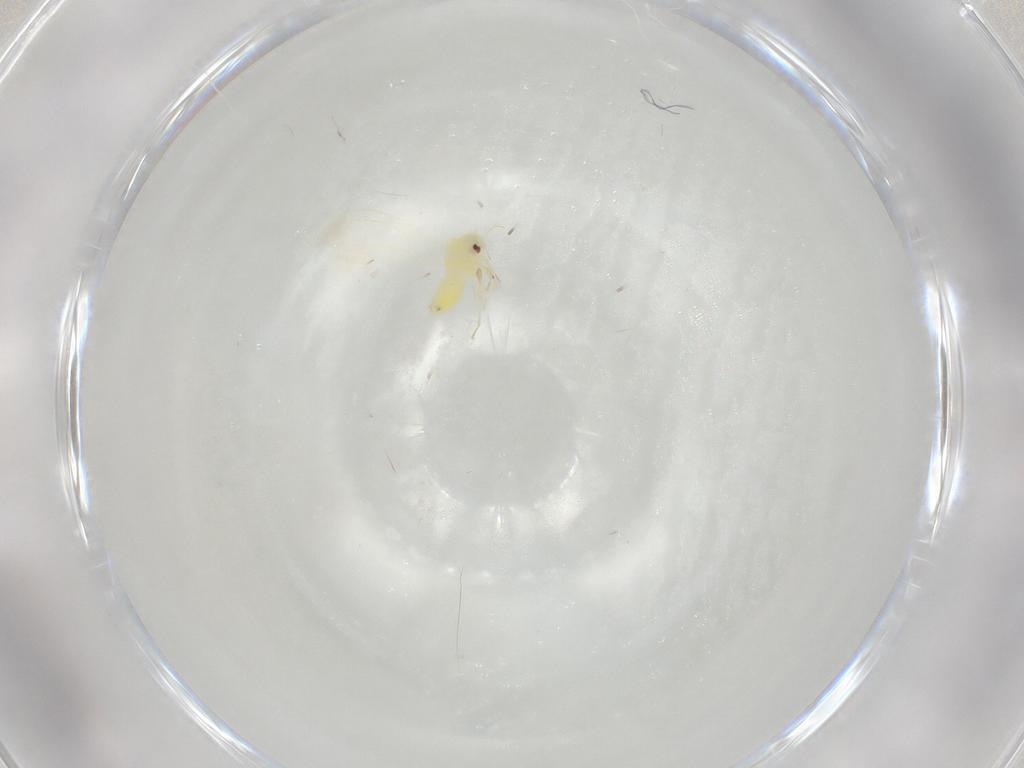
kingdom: Animalia
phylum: Arthropoda
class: Insecta
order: Hemiptera
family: Aleyrodidae
